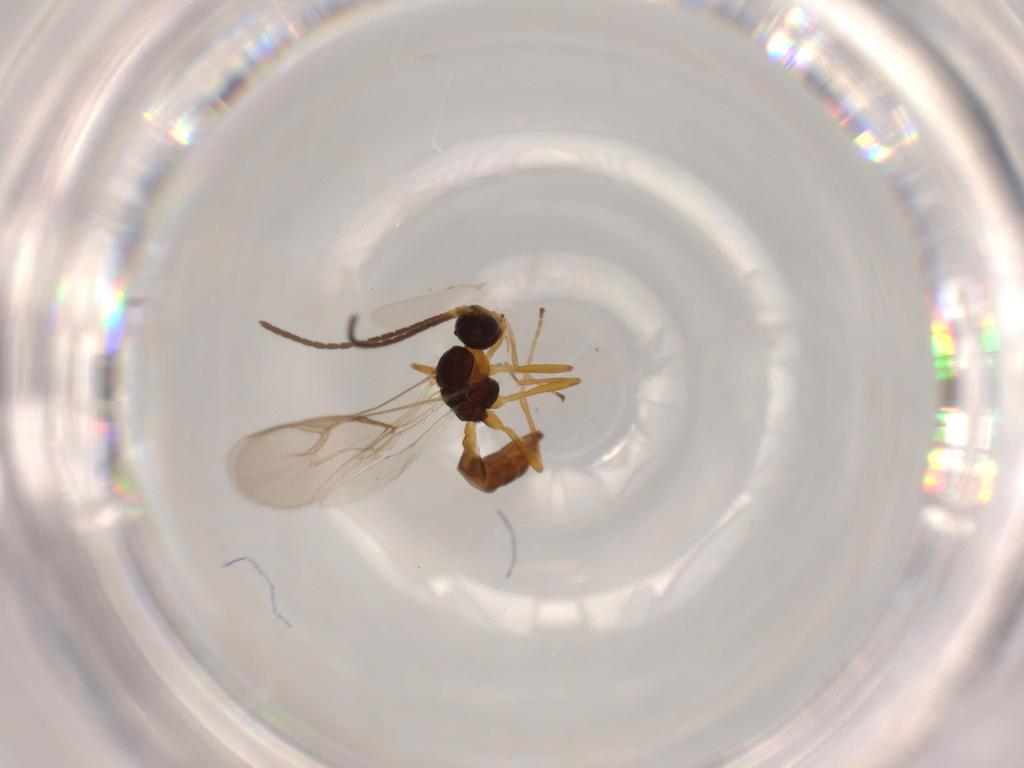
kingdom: Animalia
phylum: Arthropoda
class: Insecta
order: Hymenoptera
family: Braconidae
